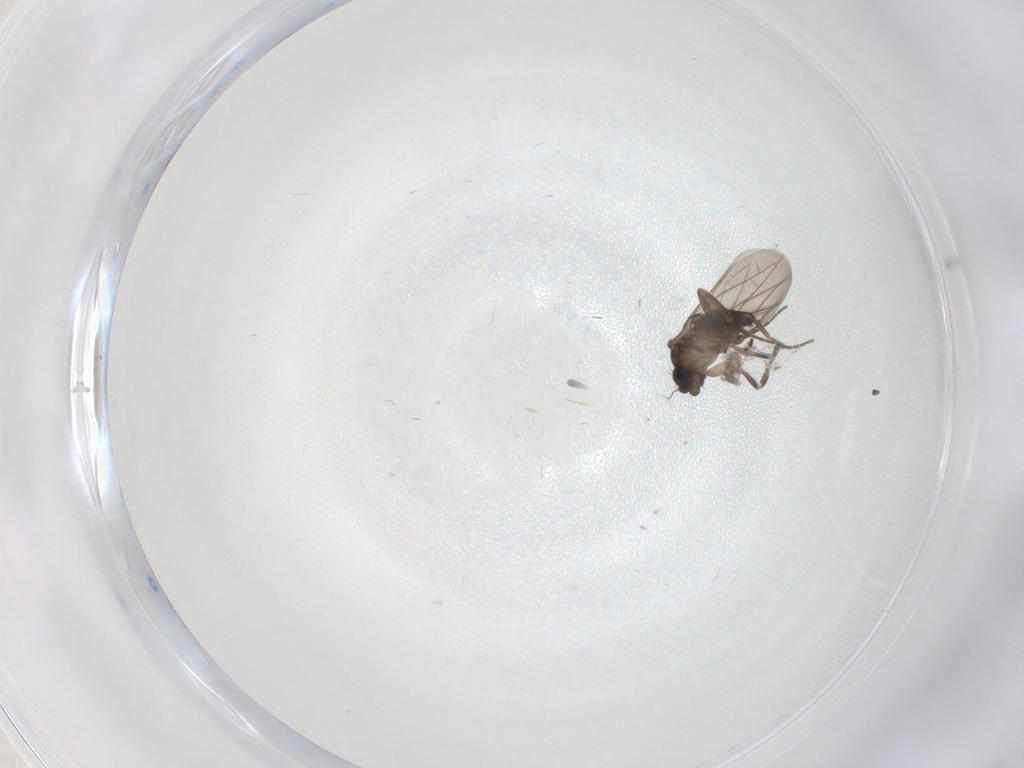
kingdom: Animalia
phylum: Arthropoda
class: Insecta
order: Diptera
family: Cecidomyiidae
